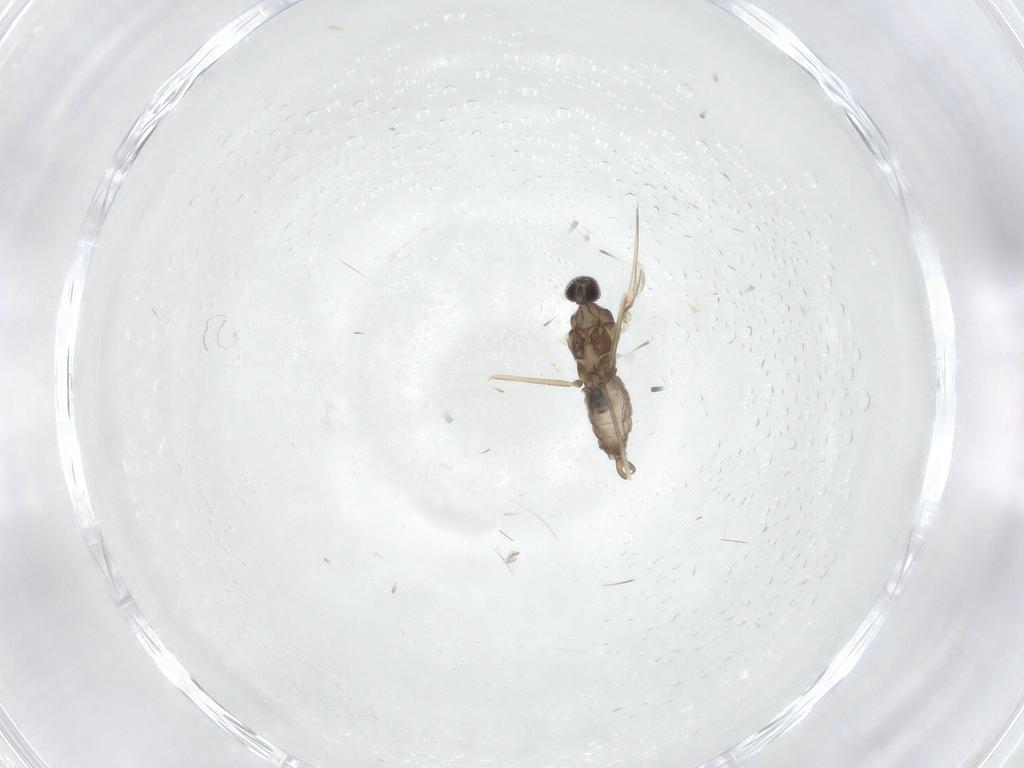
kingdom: Animalia
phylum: Arthropoda
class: Insecta
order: Diptera
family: Cecidomyiidae
